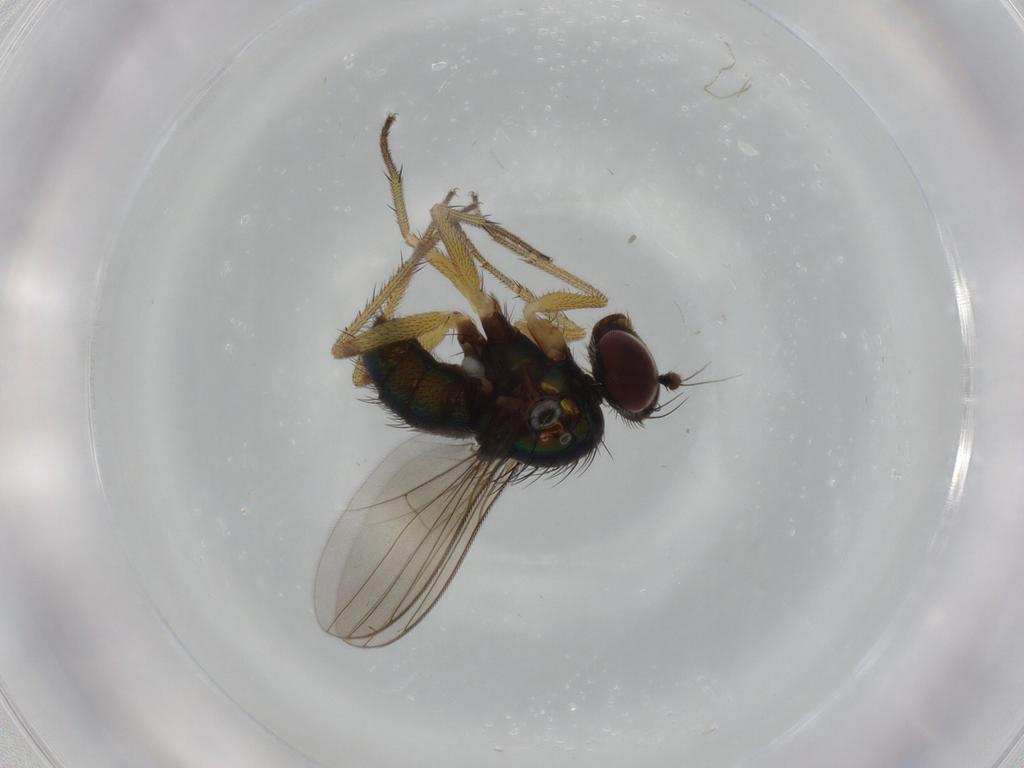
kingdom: Animalia
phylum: Arthropoda
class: Insecta
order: Diptera
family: Dolichopodidae
